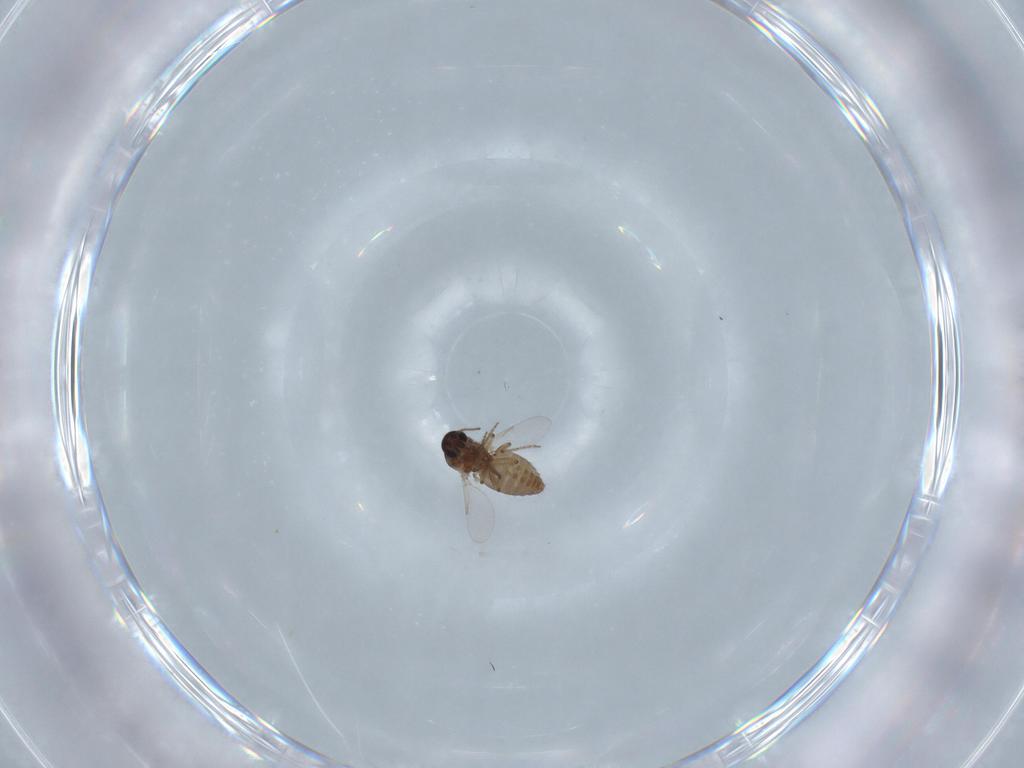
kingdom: Animalia
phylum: Arthropoda
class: Insecta
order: Diptera
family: Ceratopogonidae
